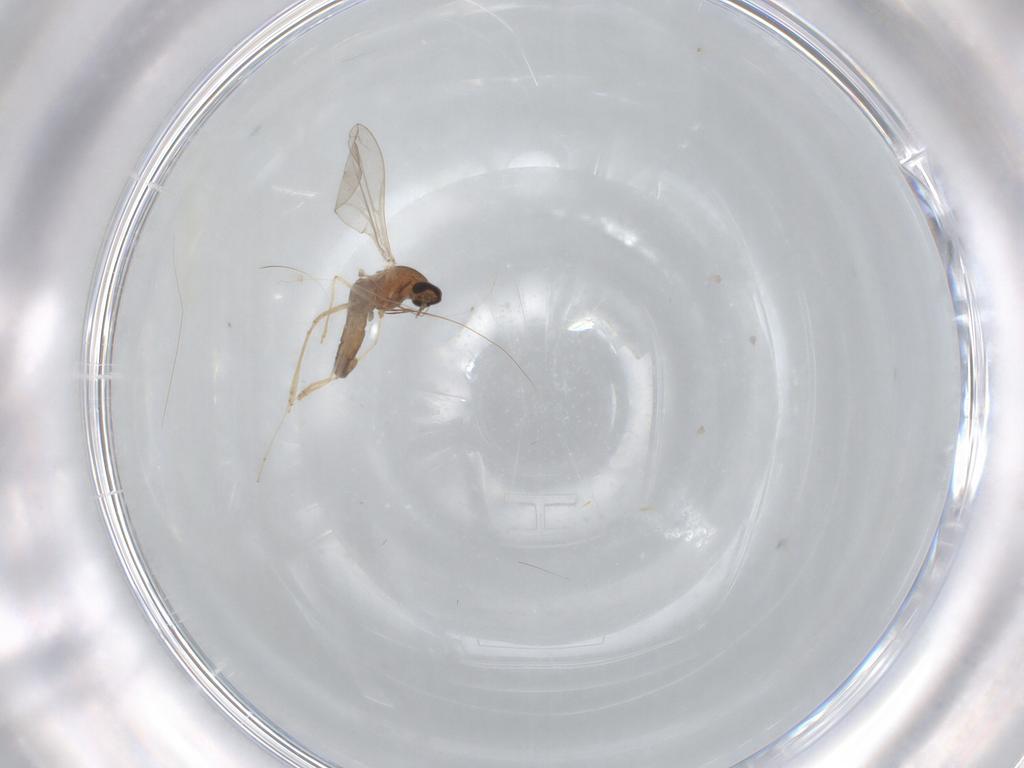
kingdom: Animalia
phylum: Arthropoda
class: Insecta
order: Diptera
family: Cecidomyiidae
